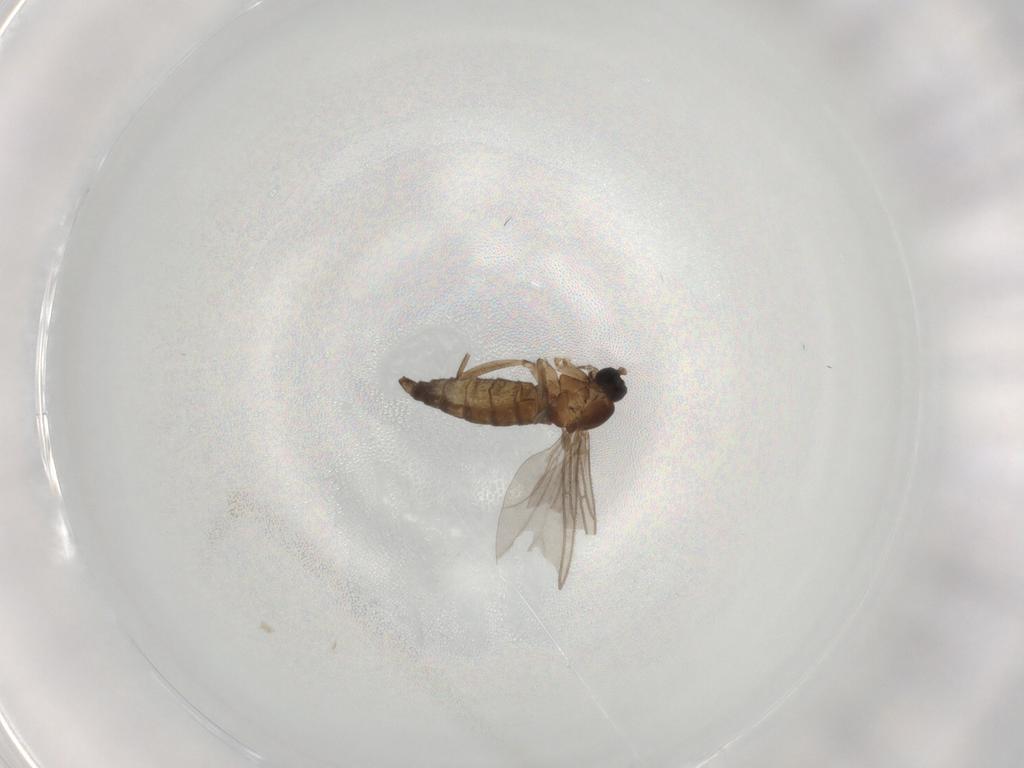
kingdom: Animalia
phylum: Arthropoda
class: Insecta
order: Diptera
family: Sciaridae
